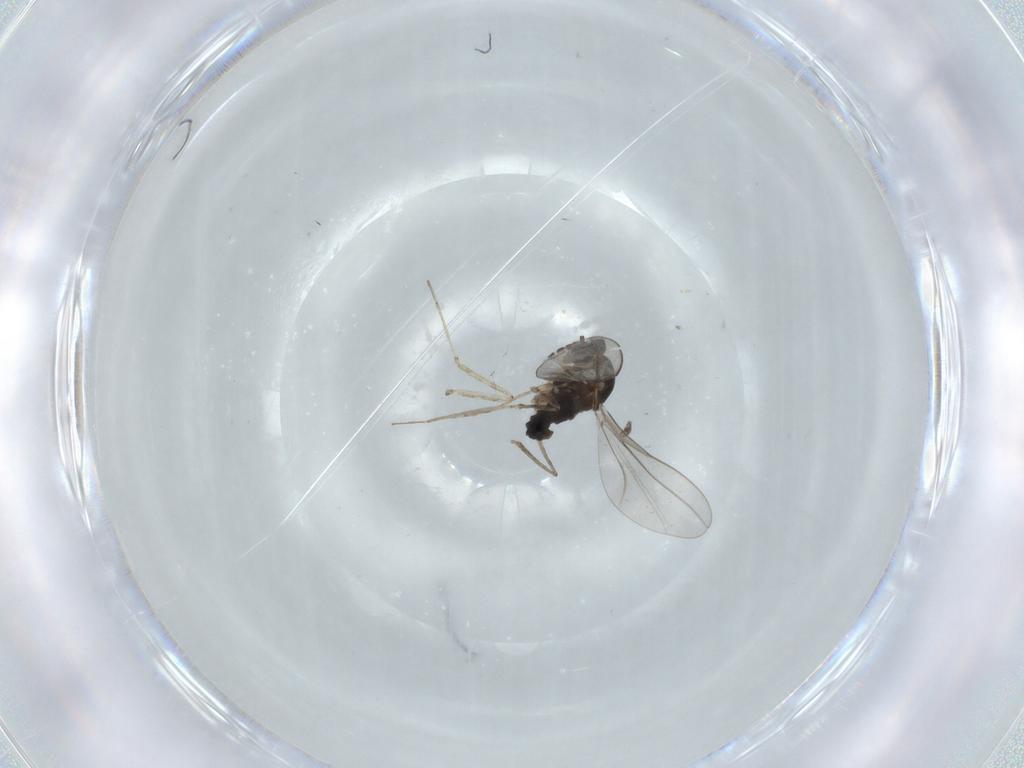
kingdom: Animalia
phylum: Arthropoda
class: Insecta
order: Diptera
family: Cecidomyiidae
